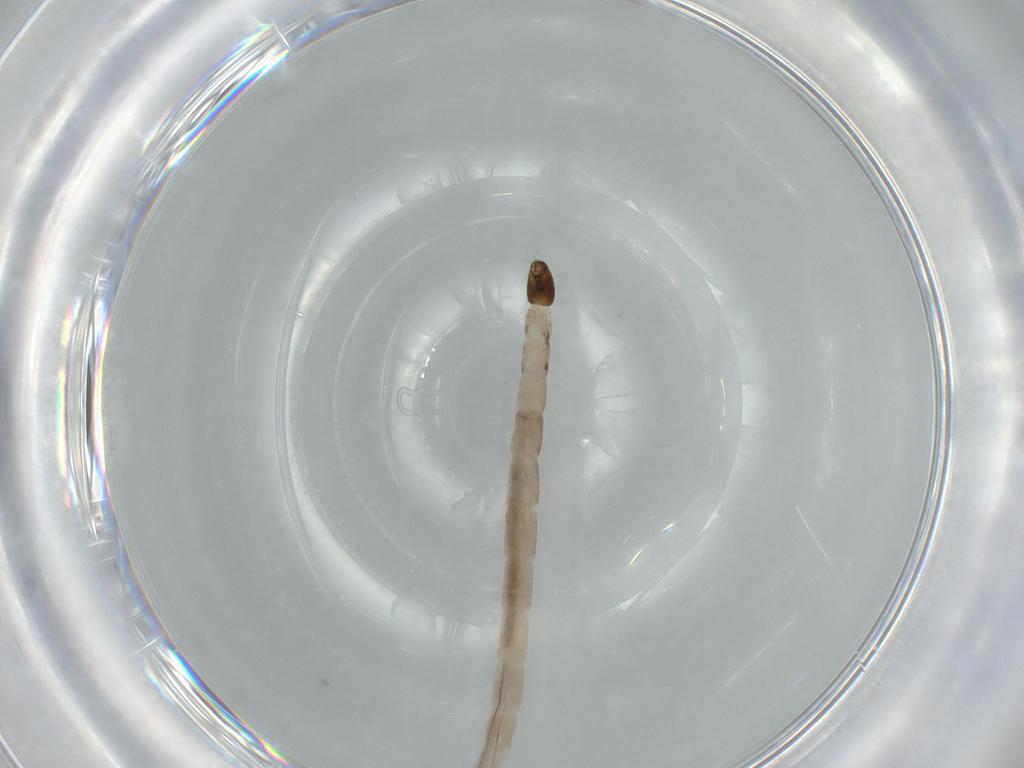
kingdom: Animalia
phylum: Arthropoda
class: Insecta
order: Diptera
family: Ceratopogonidae
